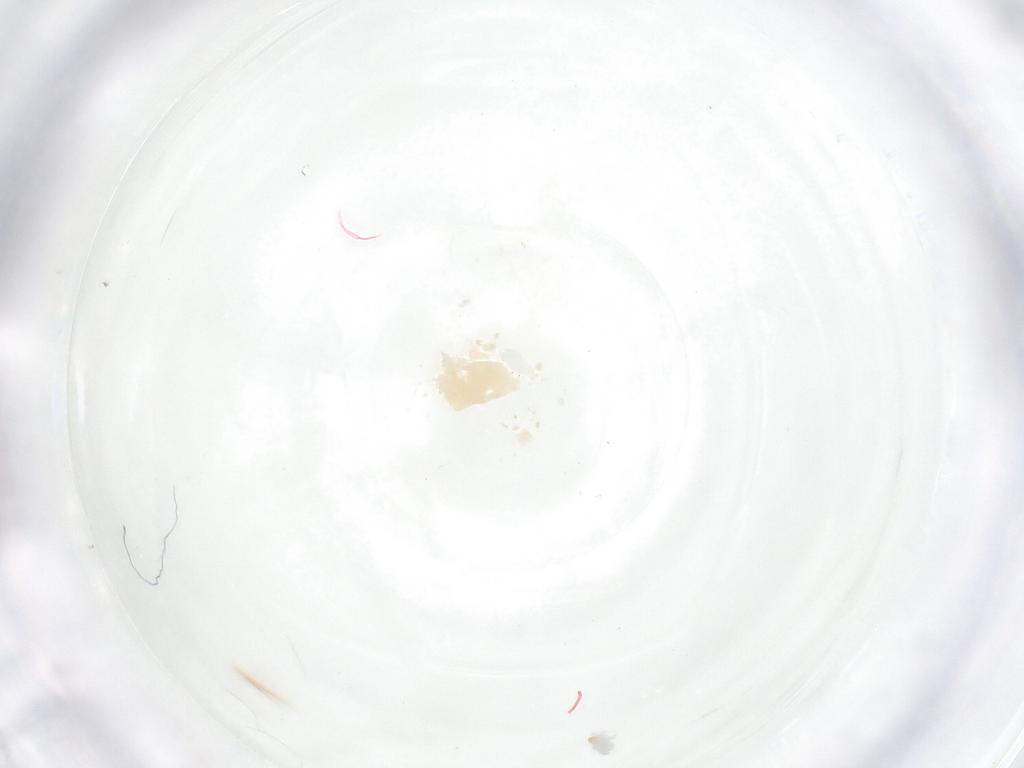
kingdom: Animalia
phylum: Arthropoda
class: Insecta
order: Diptera
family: Fergusoninidae
